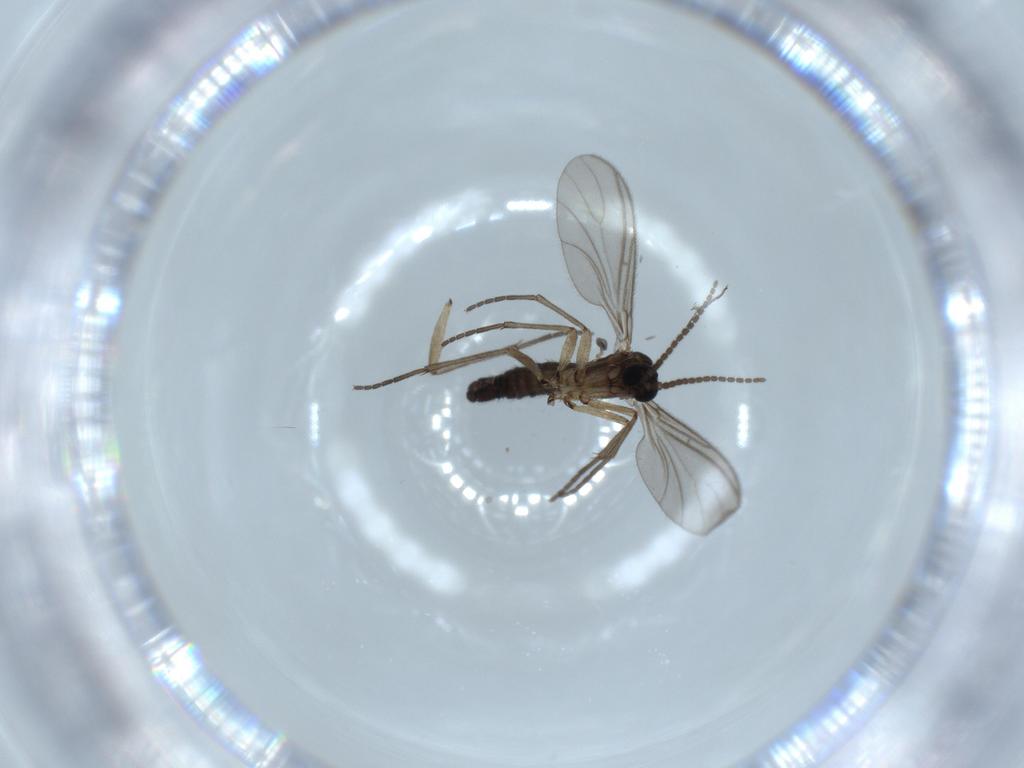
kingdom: Animalia
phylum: Arthropoda
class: Insecta
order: Diptera
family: Sciaridae
